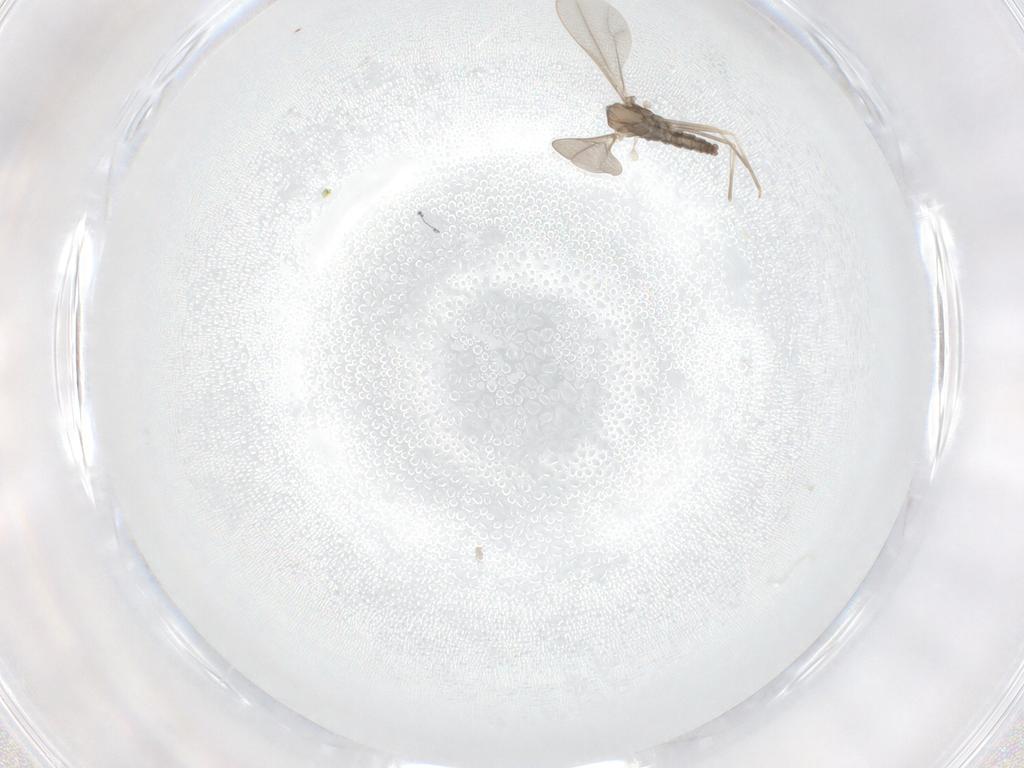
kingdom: Animalia
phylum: Arthropoda
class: Insecta
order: Diptera
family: Cecidomyiidae
